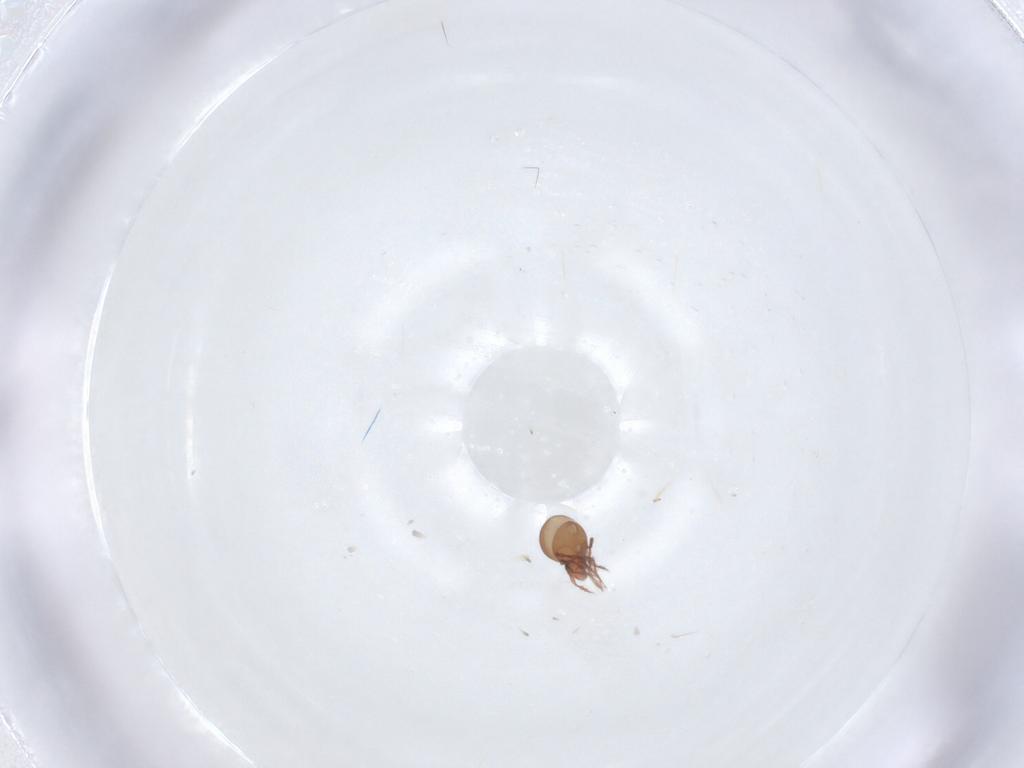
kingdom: Animalia
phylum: Arthropoda
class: Arachnida
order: Sarcoptiformes
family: Oppiidae
